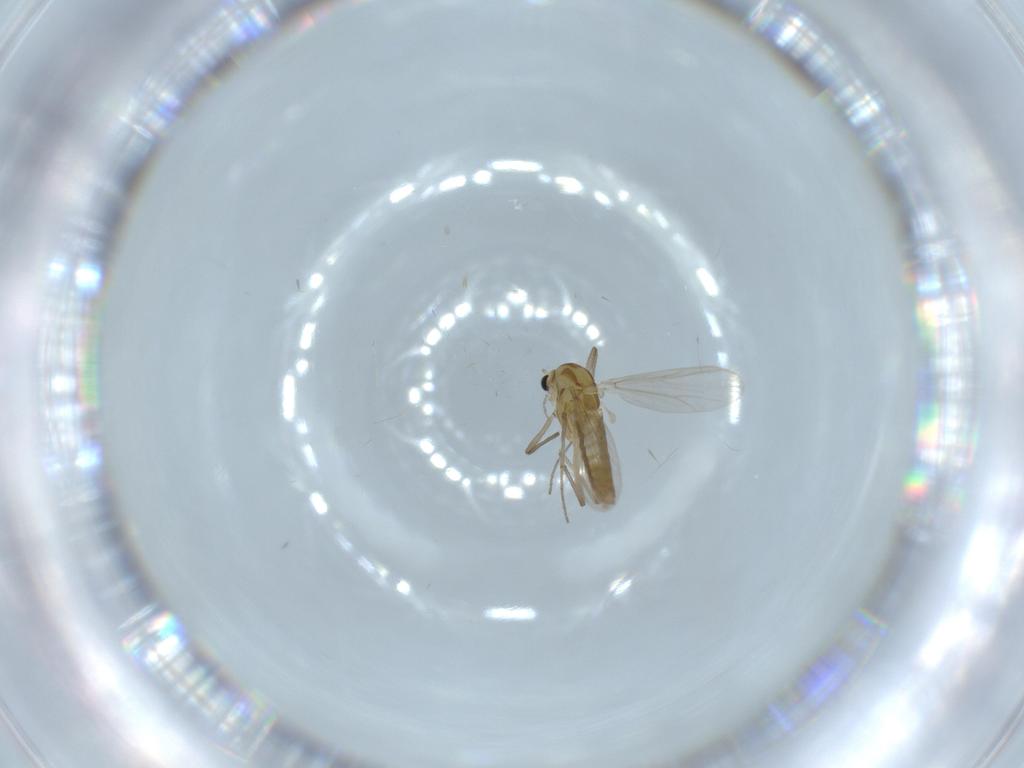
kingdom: Animalia
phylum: Arthropoda
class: Insecta
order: Diptera
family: Chironomidae
